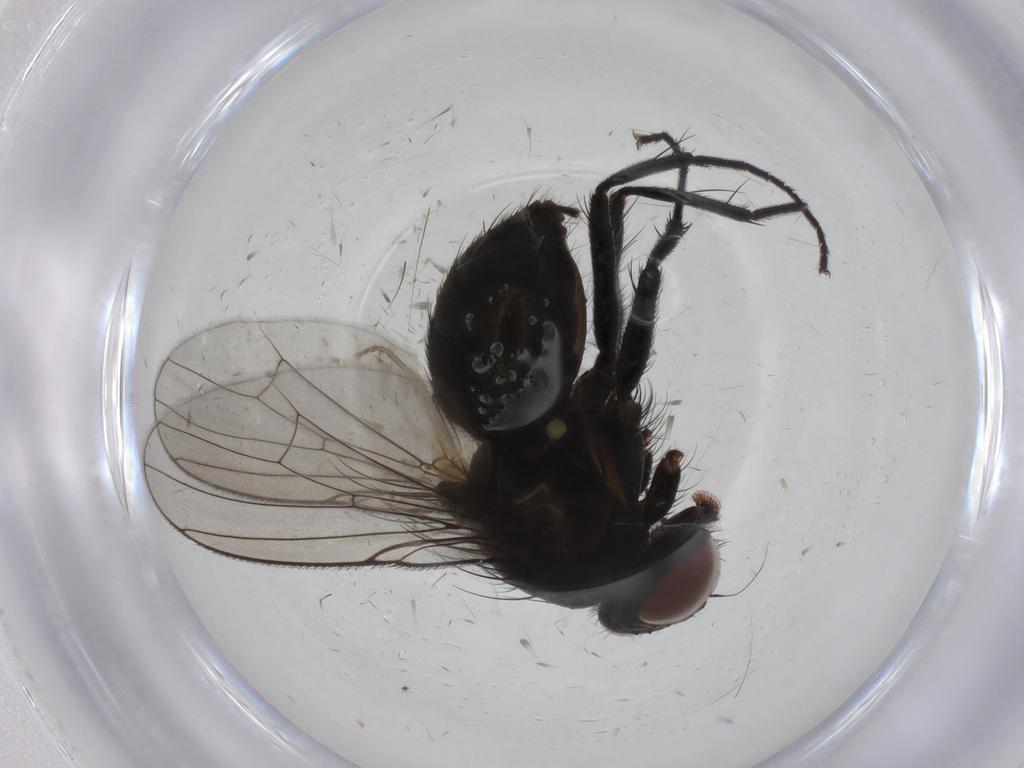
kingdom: Animalia
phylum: Arthropoda
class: Insecta
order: Diptera
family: Muscidae
